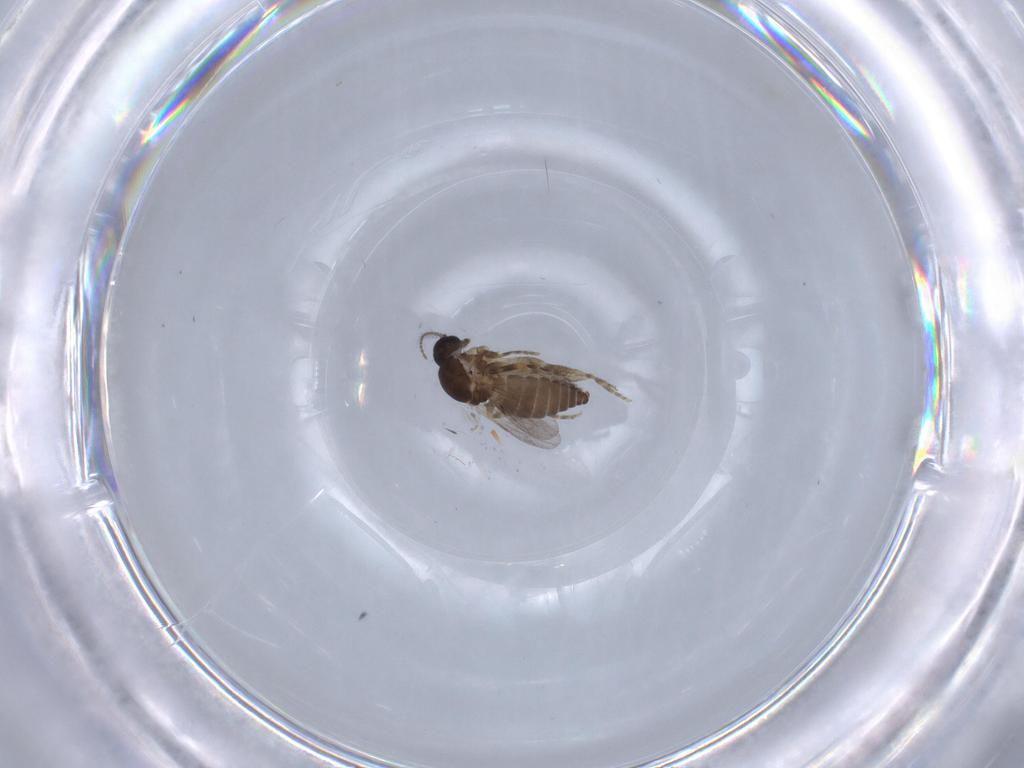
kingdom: Animalia
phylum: Arthropoda
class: Insecta
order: Diptera
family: Ceratopogonidae
